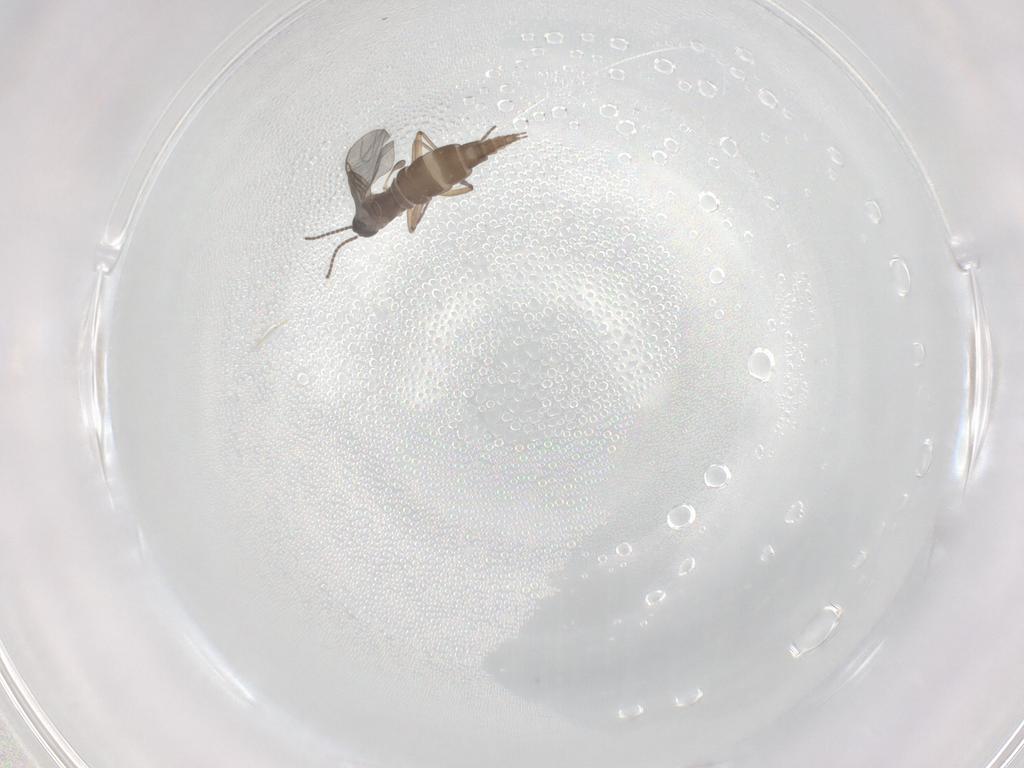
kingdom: Animalia
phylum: Arthropoda
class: Insecta
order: Diptera
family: Sciaridae
